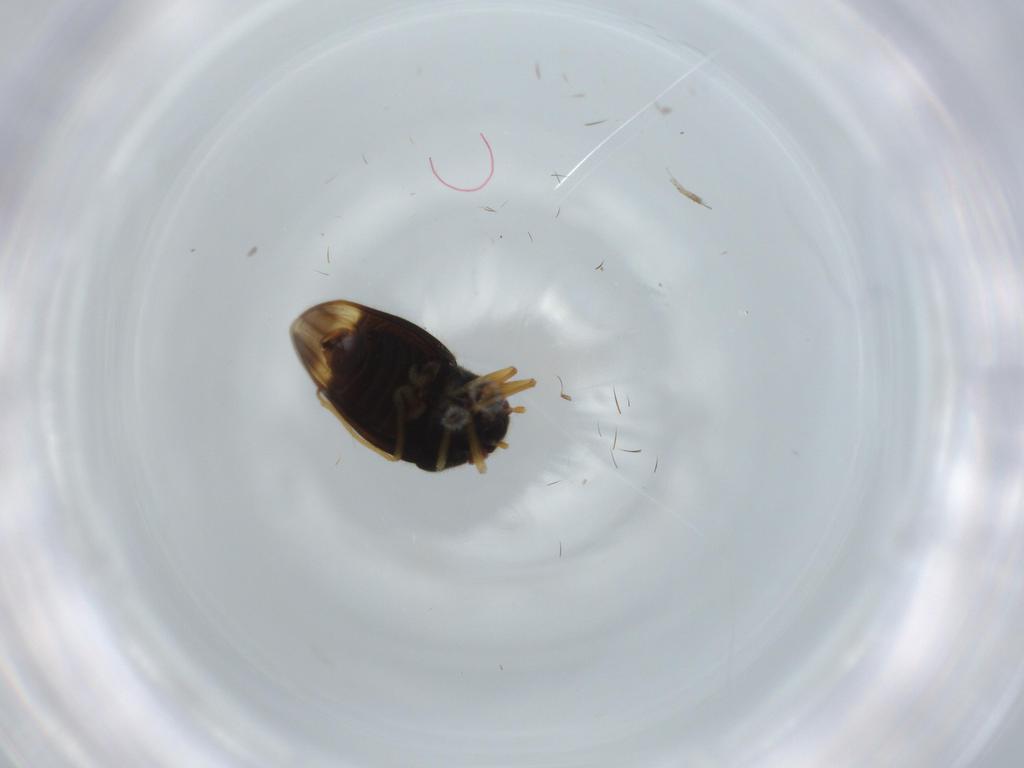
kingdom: Animalia
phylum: Arthropoda
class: Insecta
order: Hemiptera
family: Schizopteridae
